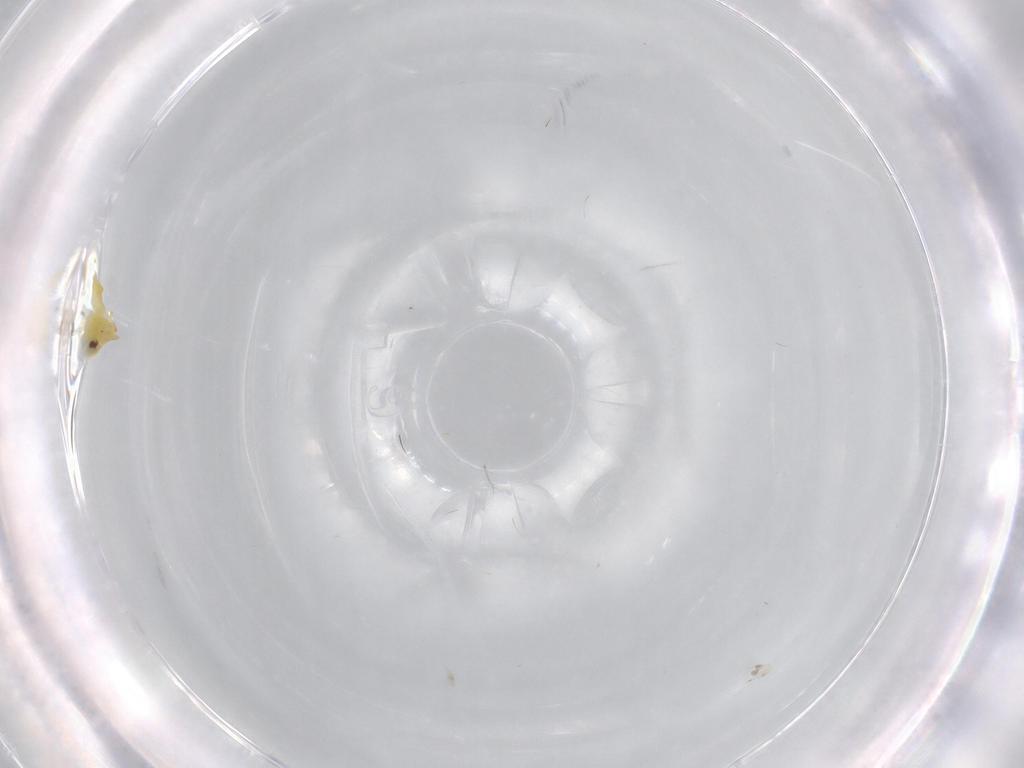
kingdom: Animalia
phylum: Arthropoda
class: Insecta
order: Hemiptera
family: Aleyrodidae
